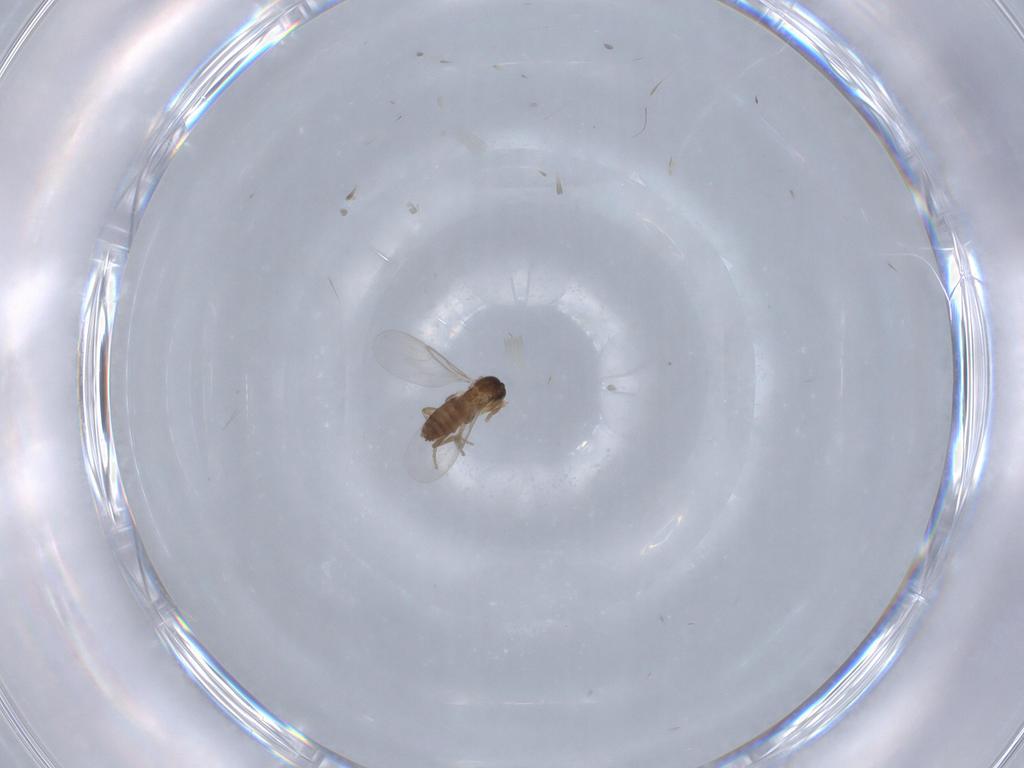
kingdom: Animalia
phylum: Arthropoda
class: Insecta
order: Diptera
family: Phoridae
